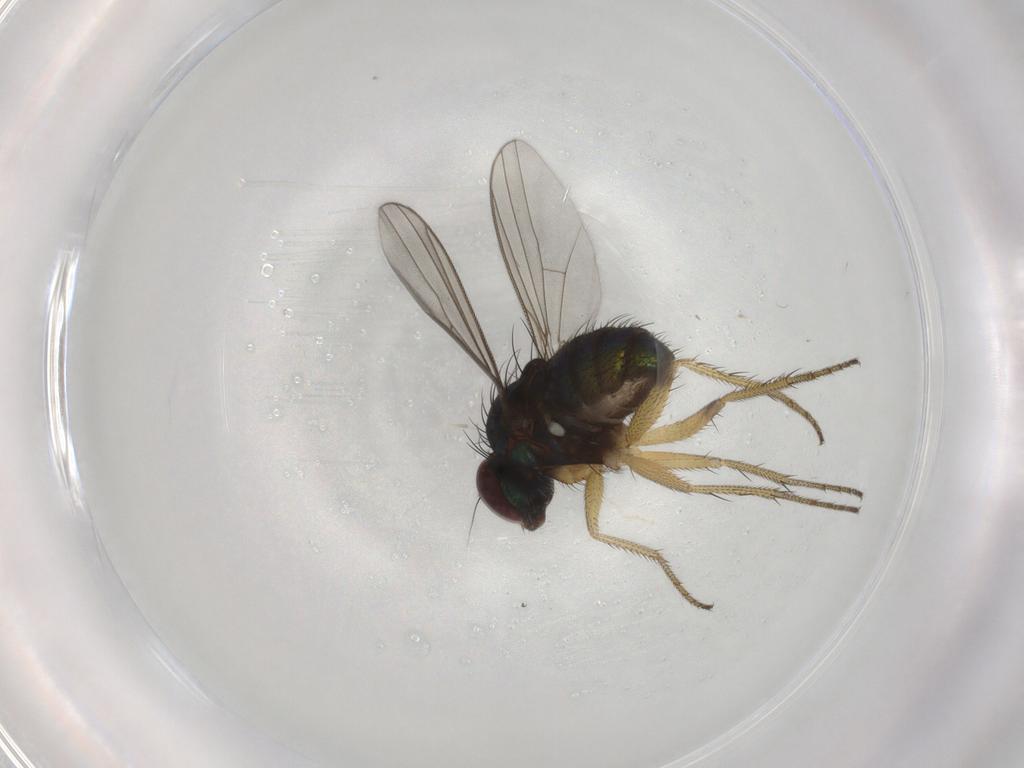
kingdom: Animalia
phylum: Arthropoda
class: Insecta
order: Diptera
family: Dolichopodidae
